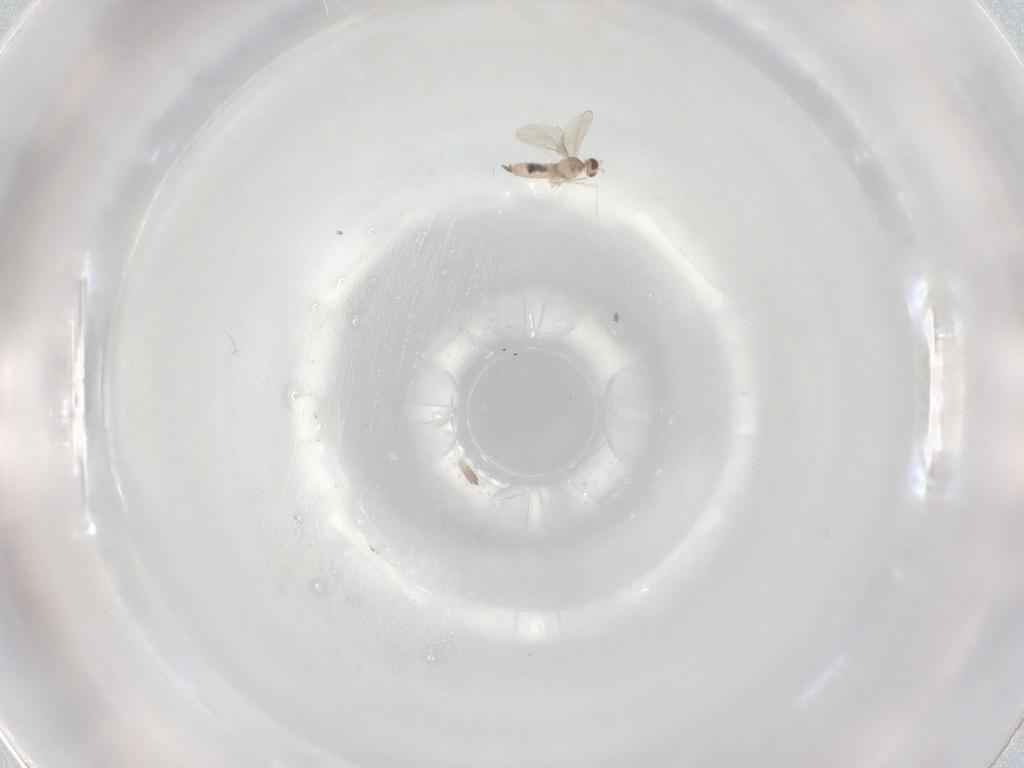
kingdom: Animalia
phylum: Arthropoda
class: Insecta
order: Diptera
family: Cecidomyiidae
